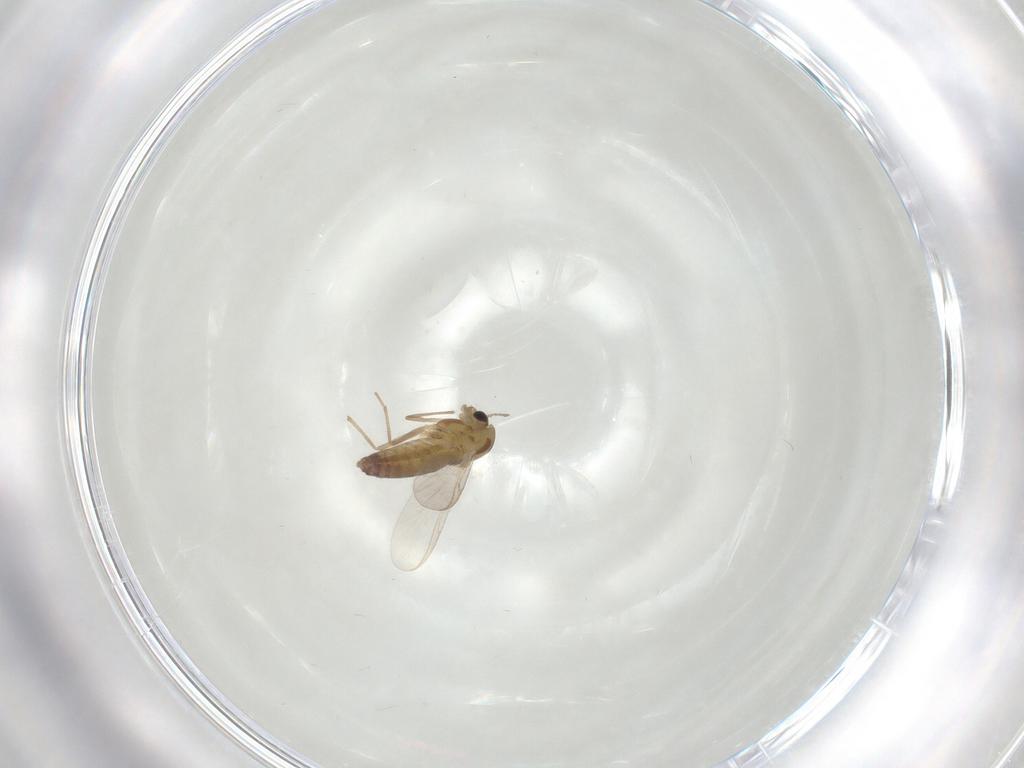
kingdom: Animalia
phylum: Arthropoda
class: Insecta
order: Diptera
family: Chironomidae
